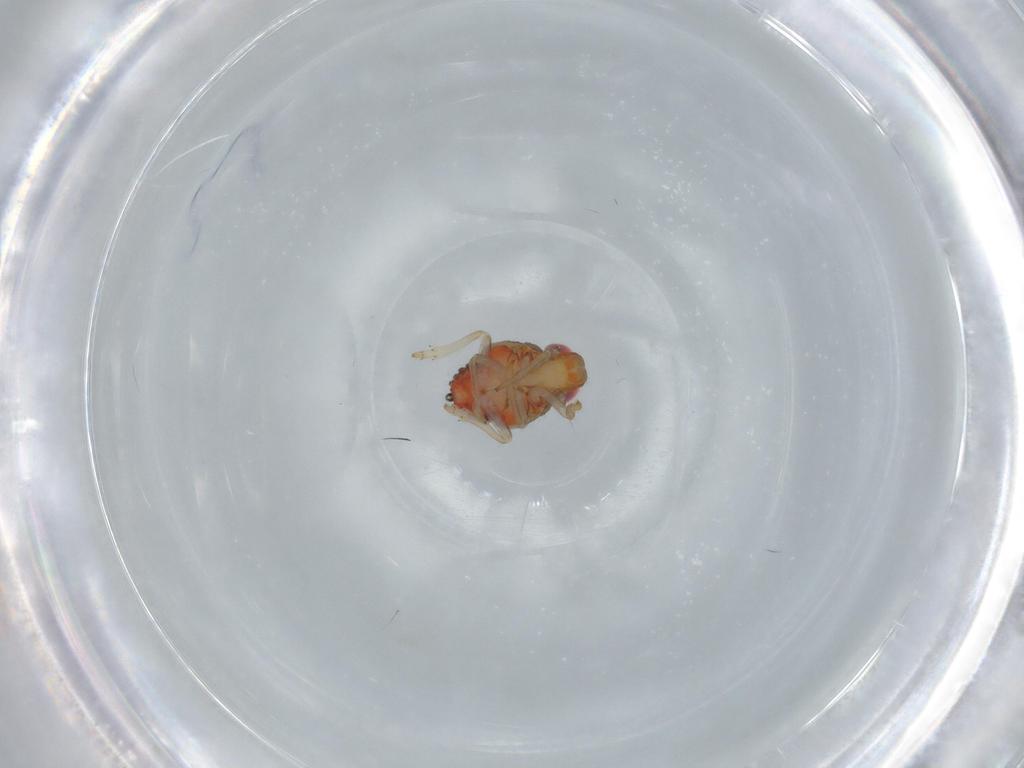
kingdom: Animalia
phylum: Arthropoda
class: Insecta
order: Hemiptera
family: Issidae
